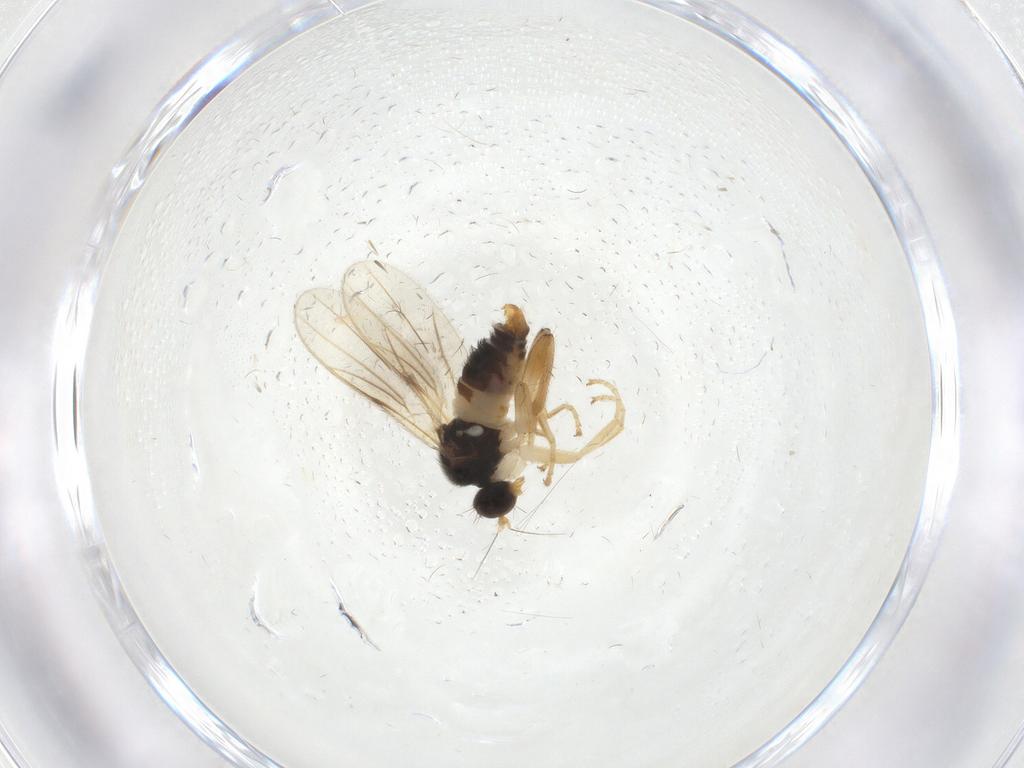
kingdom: Animalia
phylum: Arthropoda
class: Insecta
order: Diptera
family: Hybotidae
